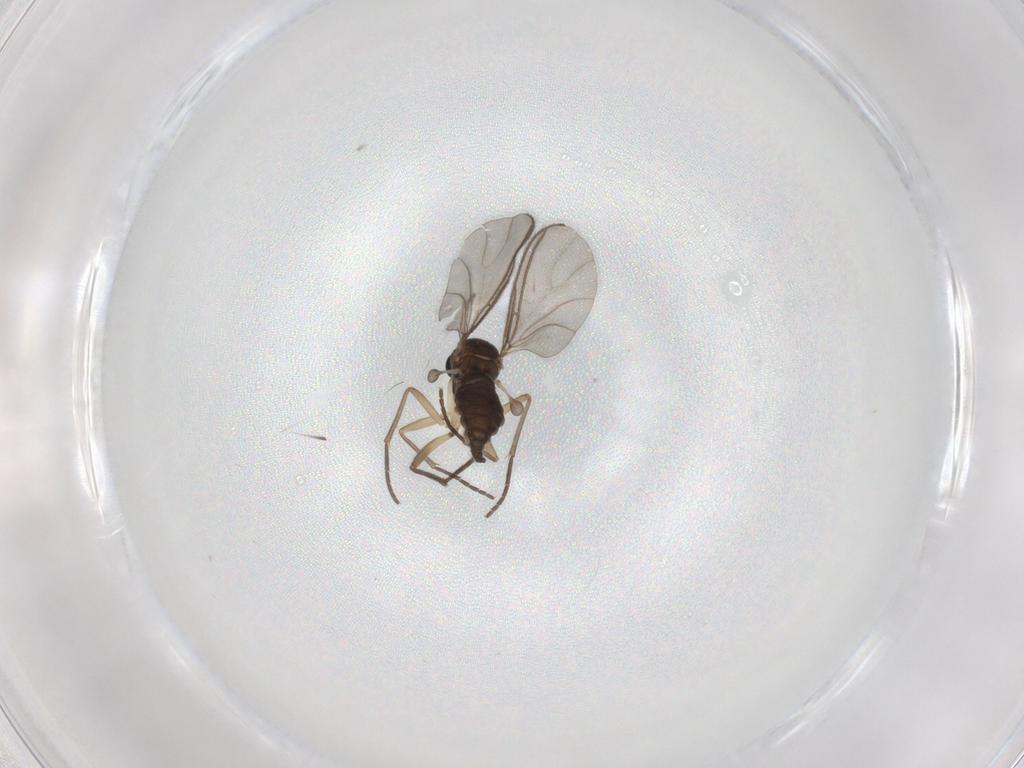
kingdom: Animalia
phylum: Arthropoda
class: Insecta
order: Diptera
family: Sciaridae
